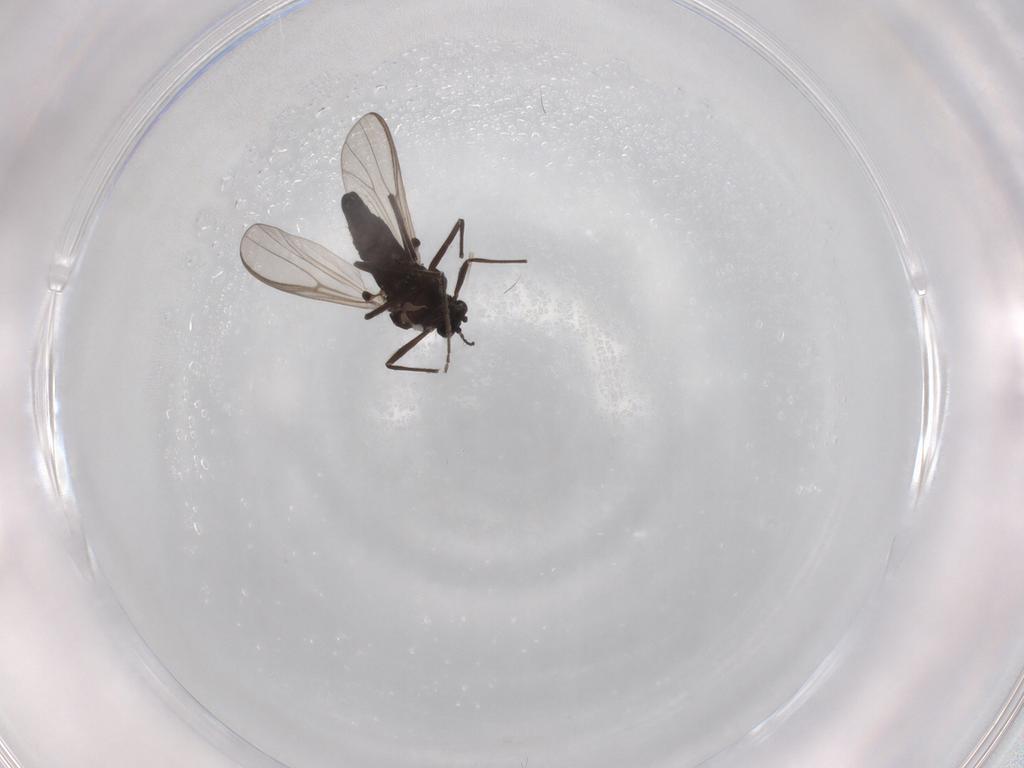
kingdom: Animalia
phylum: Arthropoda
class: Insecta
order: Diptera
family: Chironomidae
